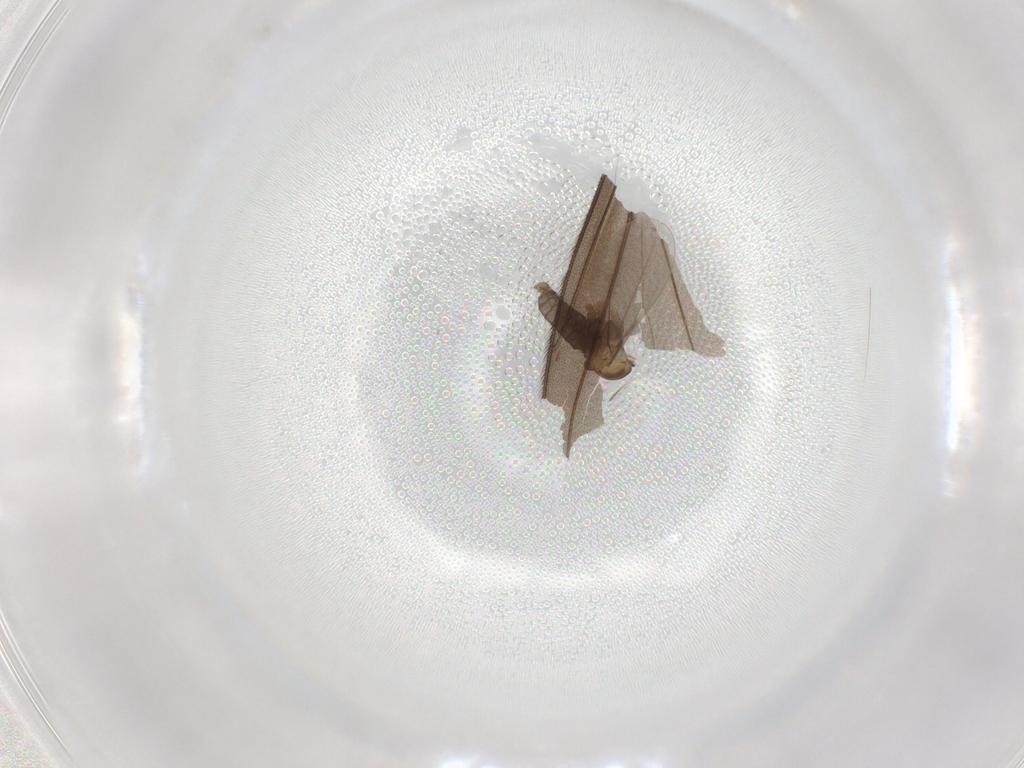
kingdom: Animalia
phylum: Arthropoda
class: Insecta
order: Diptera
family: Cecidomyiidae
